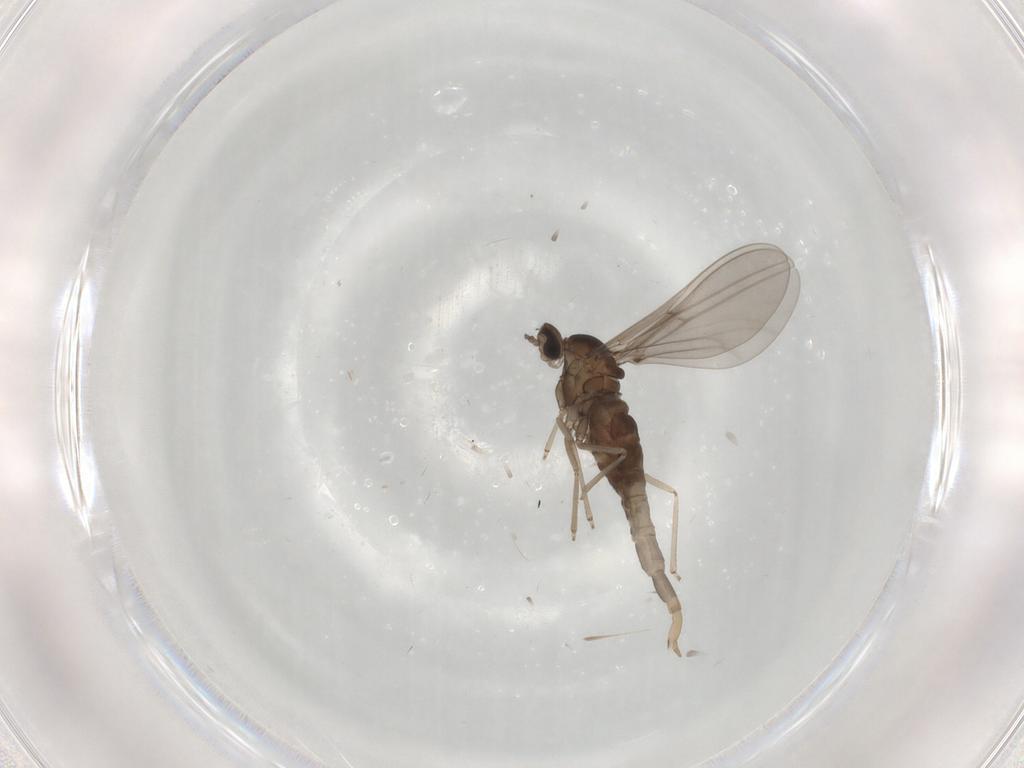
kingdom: Animalia
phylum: Arthropoda
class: Insecta
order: Diptera
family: Cecidomyiidae
